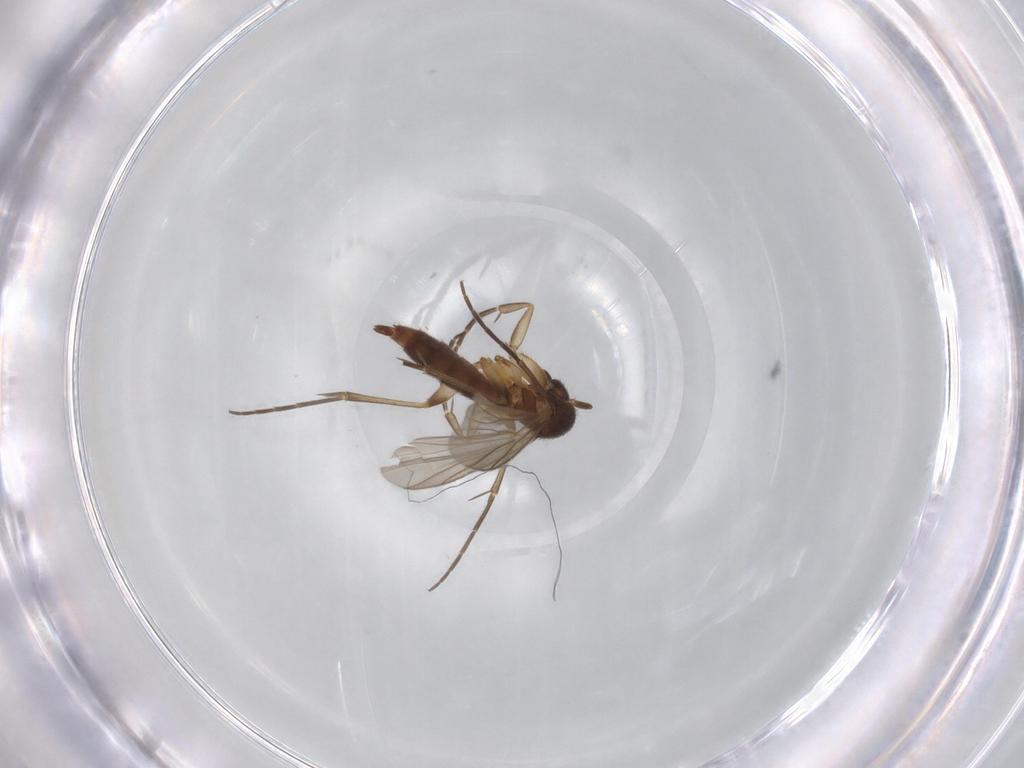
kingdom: Animalia
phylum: Arthropoda
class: Insecta
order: Diptera
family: Mycetophilidae
